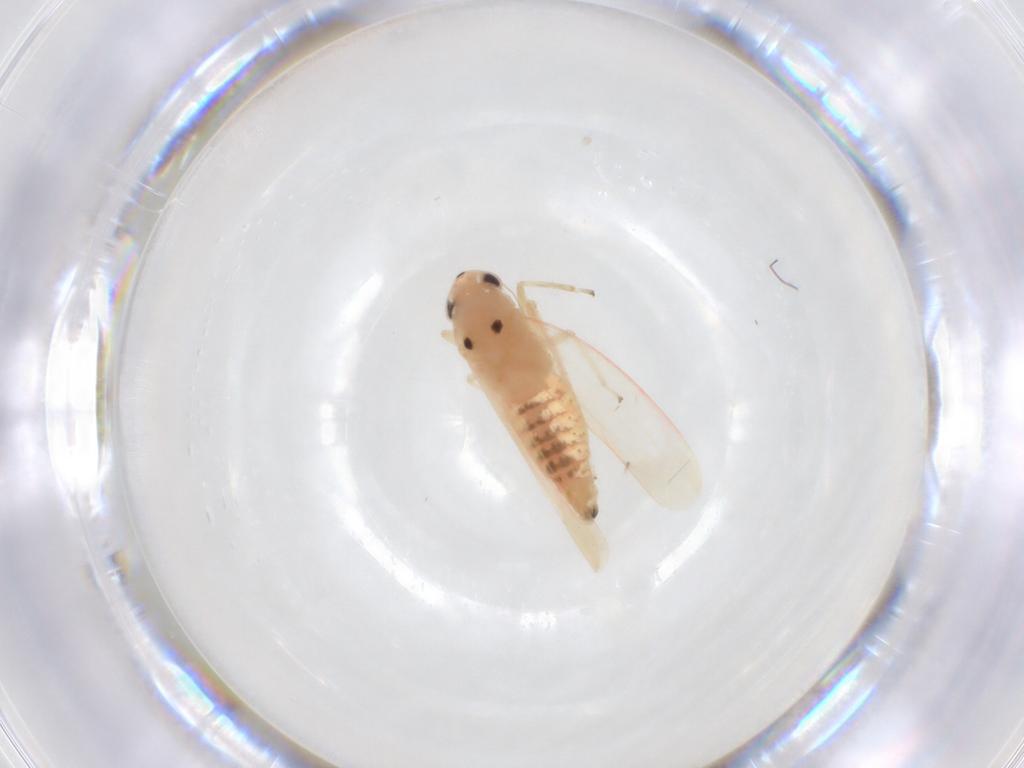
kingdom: Animalia
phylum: Arthropoda
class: Insecta
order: Hemiptera
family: Cicadellidae
